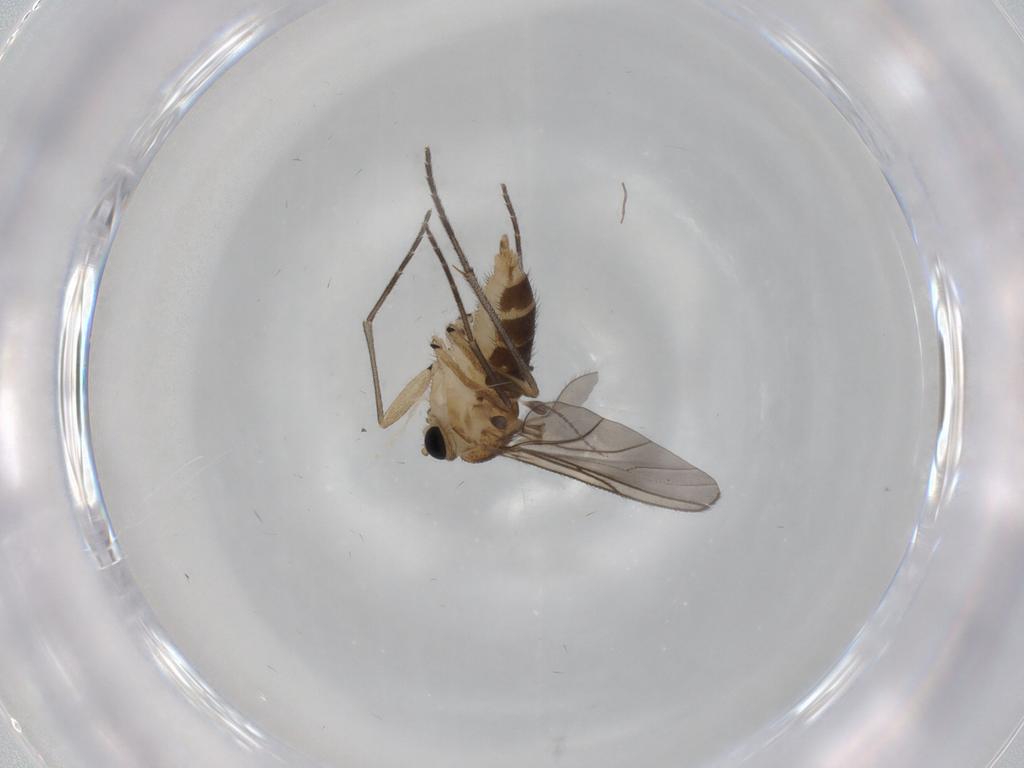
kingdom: Animalia
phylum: Arthropoda
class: Insecta
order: Diptera
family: Sciaridae
